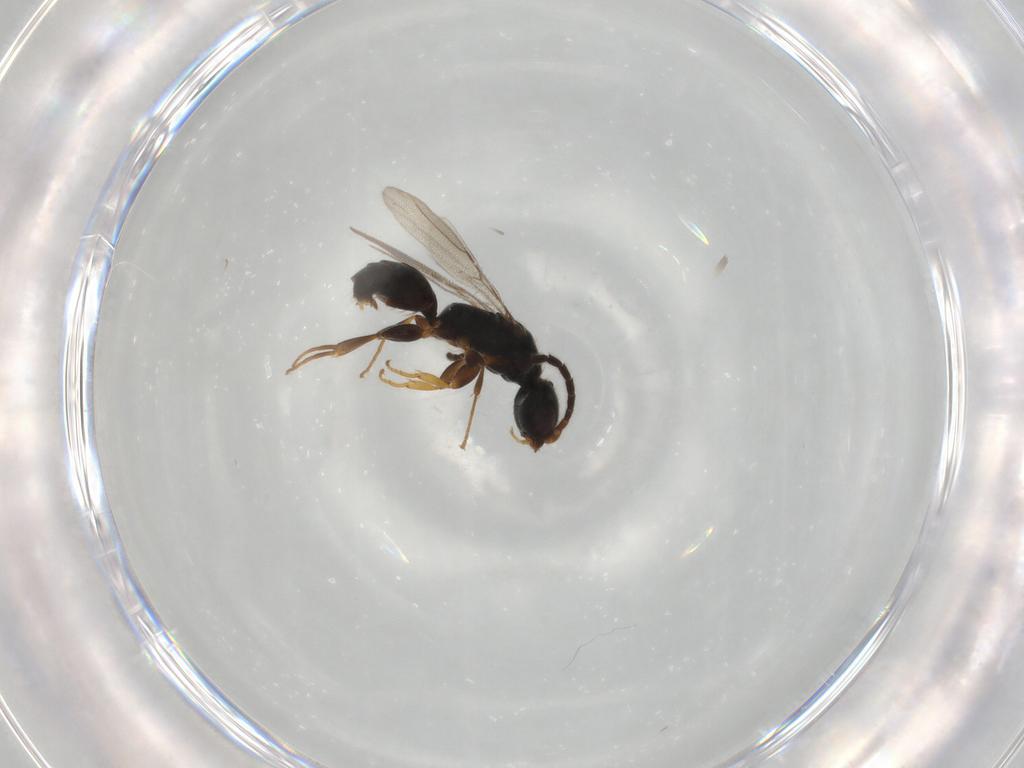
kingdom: Animalia
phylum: Arthropoda
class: Insecta
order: Hymenoptera
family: Bethylidae
